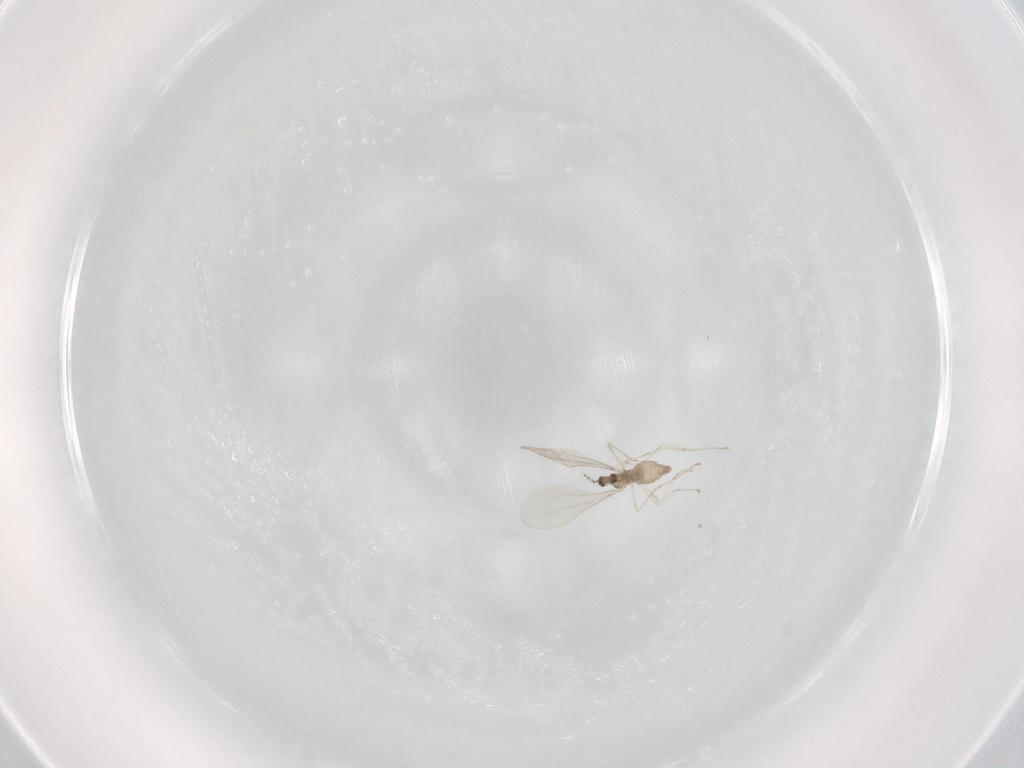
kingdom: Animalia
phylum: Arthropoda
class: Insecta
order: Diptera
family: Cecidomyiidae
